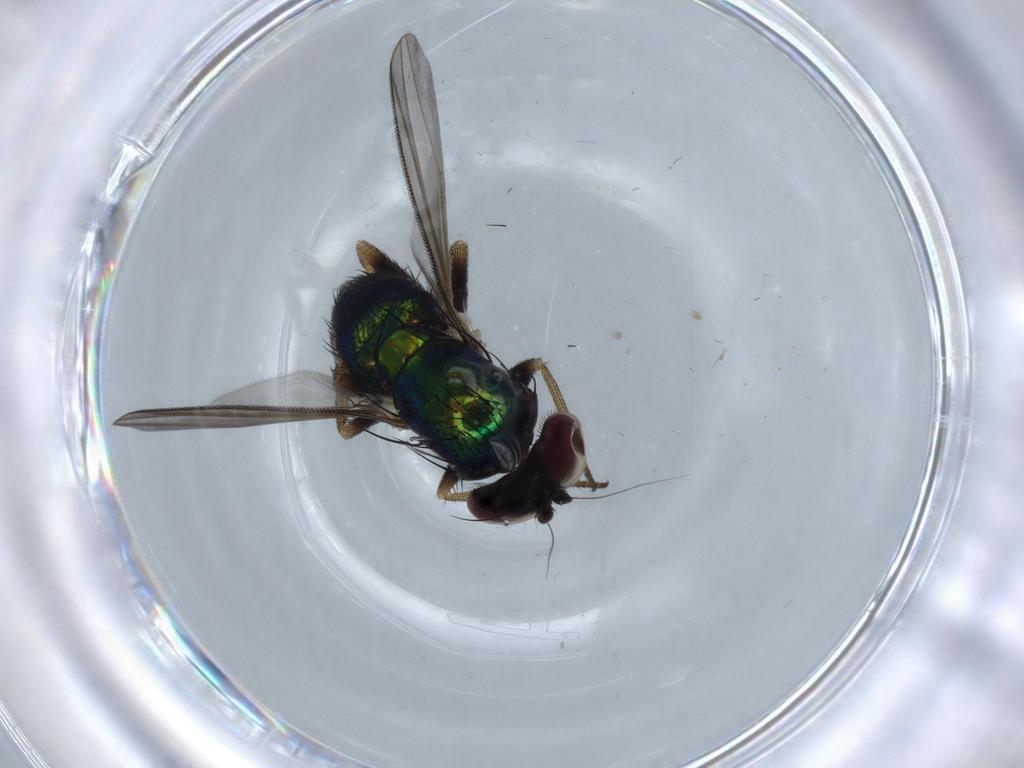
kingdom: Animalia
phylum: Arthropoda
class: Insecta
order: Diptera
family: Dolichopodidae
